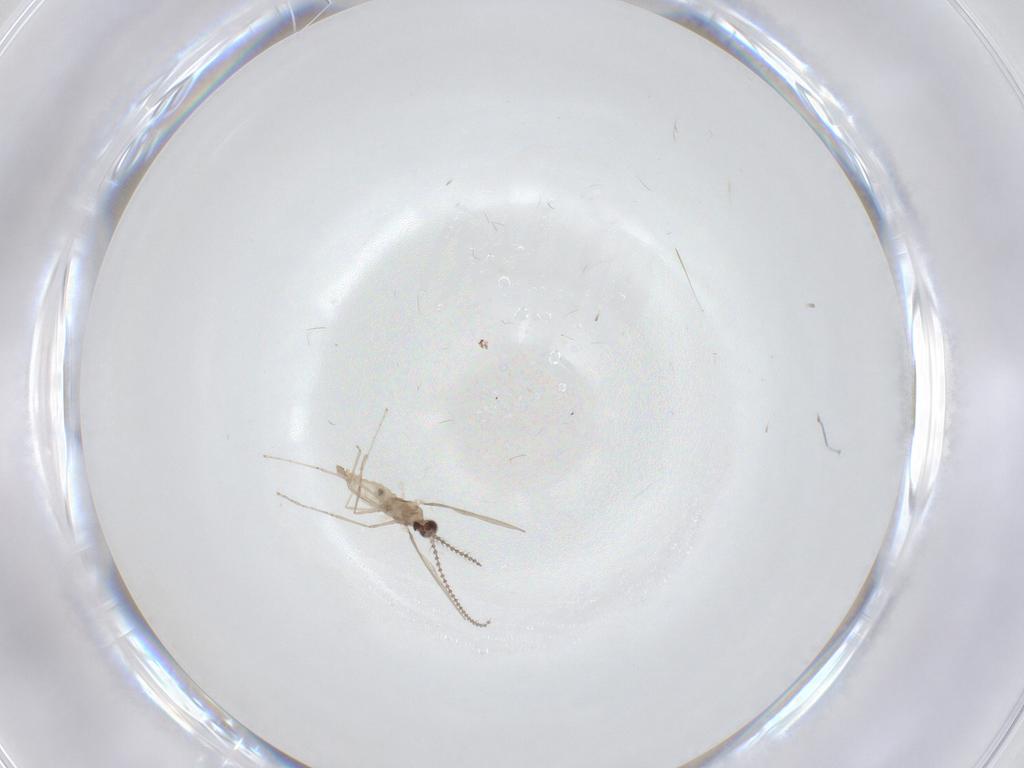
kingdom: Animalia
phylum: Arthropoda
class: Insecta
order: Diptera
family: Cecidomyiidae
